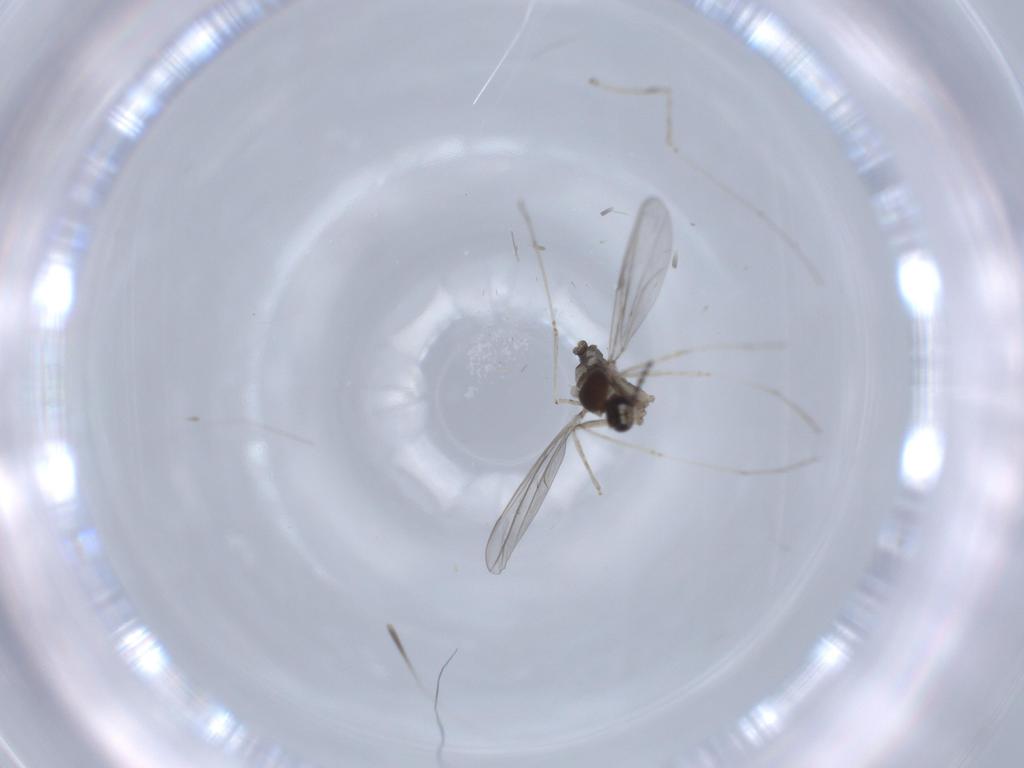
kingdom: Animalia
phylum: Arthropoda
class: Insecta
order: Diptera
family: Cecidomyiidae
